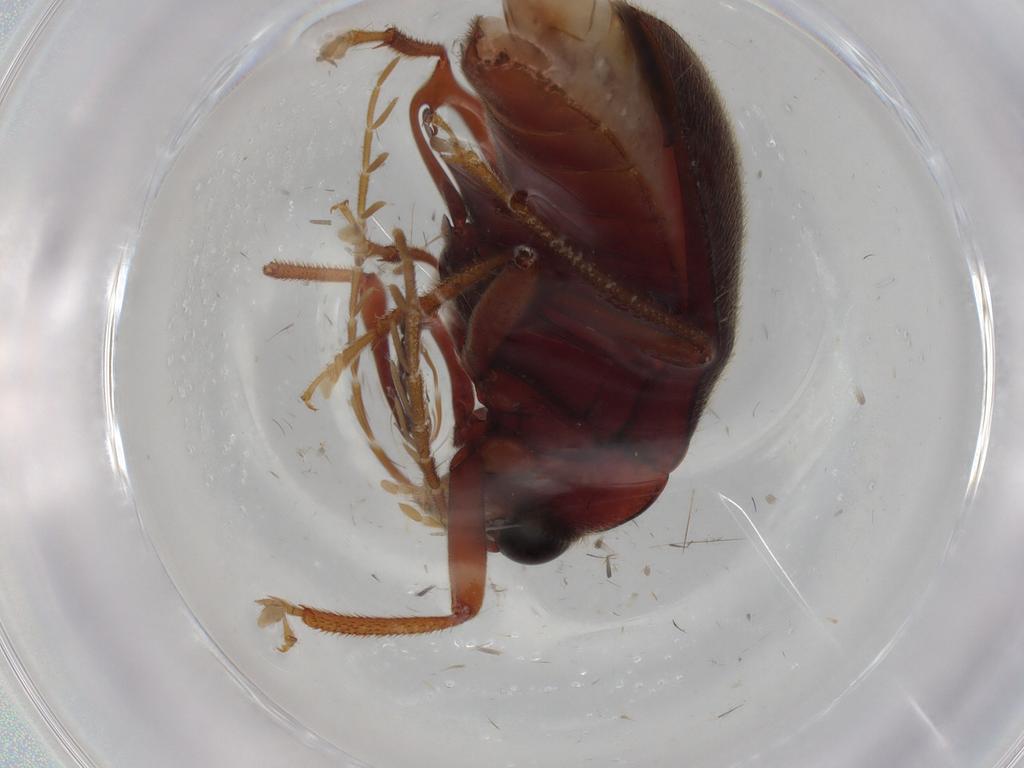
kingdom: Animalia
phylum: Arthropoda
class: Insecta
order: Coleoptera
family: Ptilodactylidae
